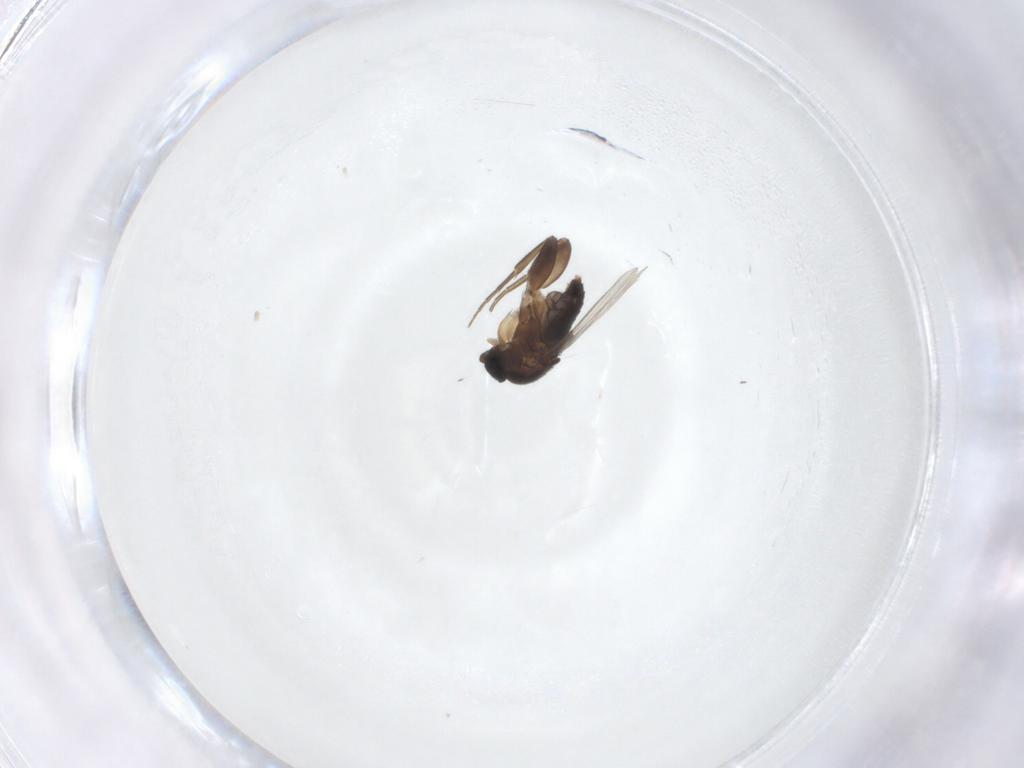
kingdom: Animalia
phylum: Arthropoda
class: Insecta
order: Diptera
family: Phoridae
